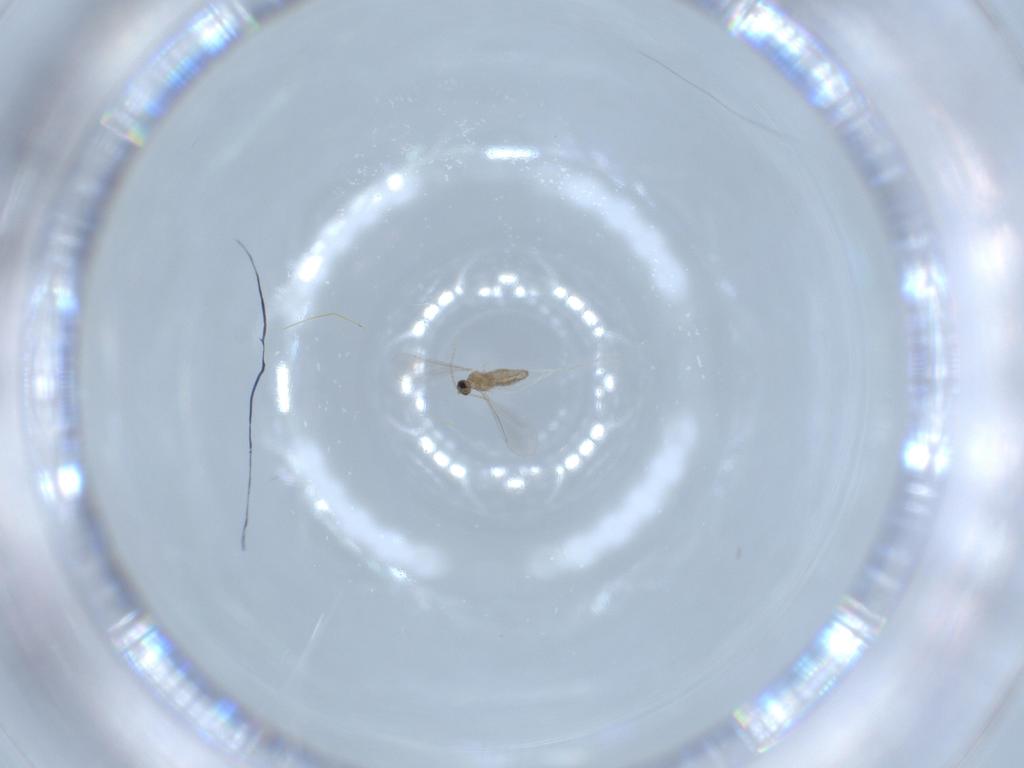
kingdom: Animalia
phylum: Arthropoda
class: Insecta
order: Diptera
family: Cecidomyiidae
